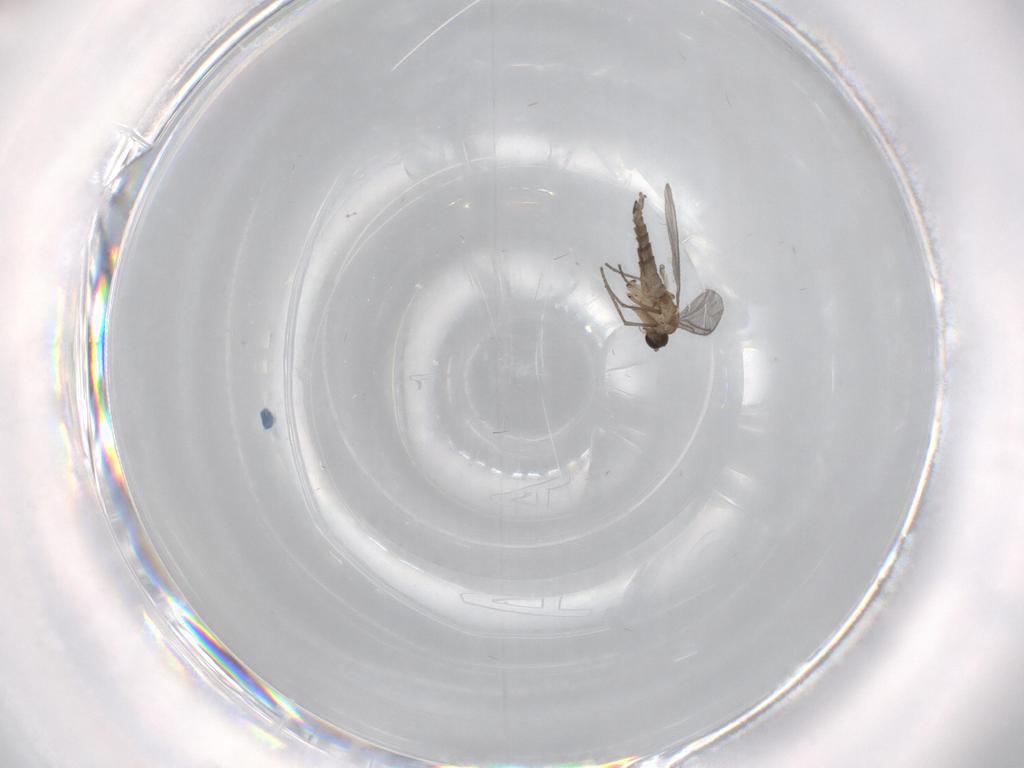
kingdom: Animalia
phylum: Arthropoda
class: Insecta
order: Diptera
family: Sciaridae
